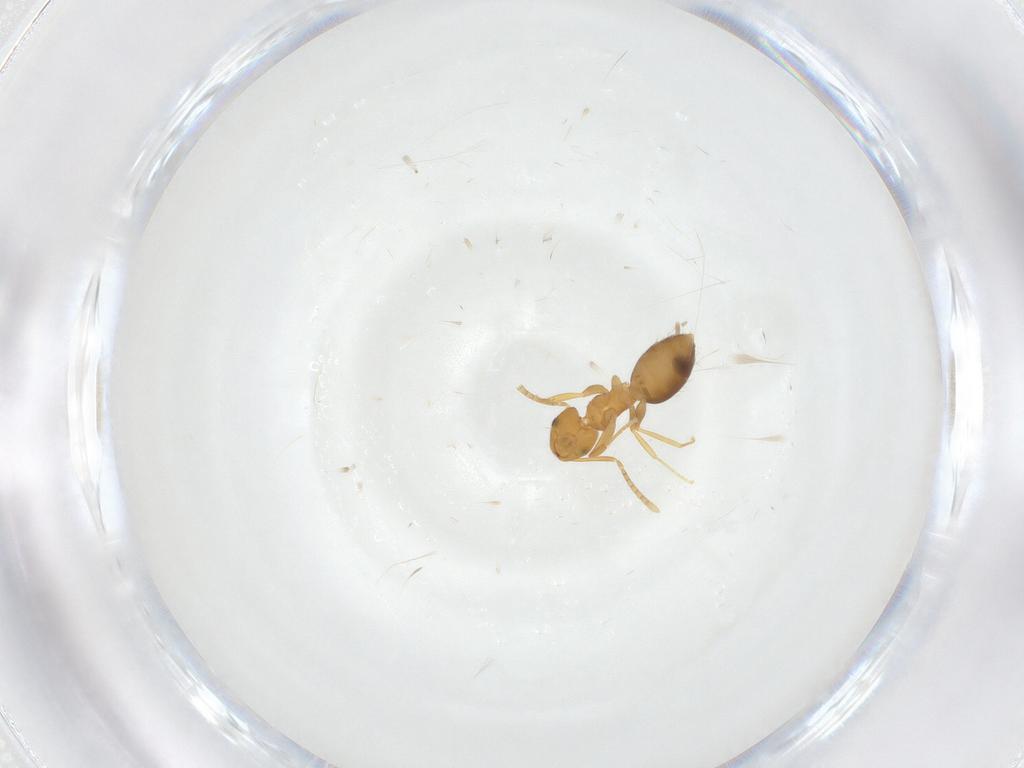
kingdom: Animalia
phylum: Arthropoda
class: Insecta
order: Hymenoptera
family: Formicidae
